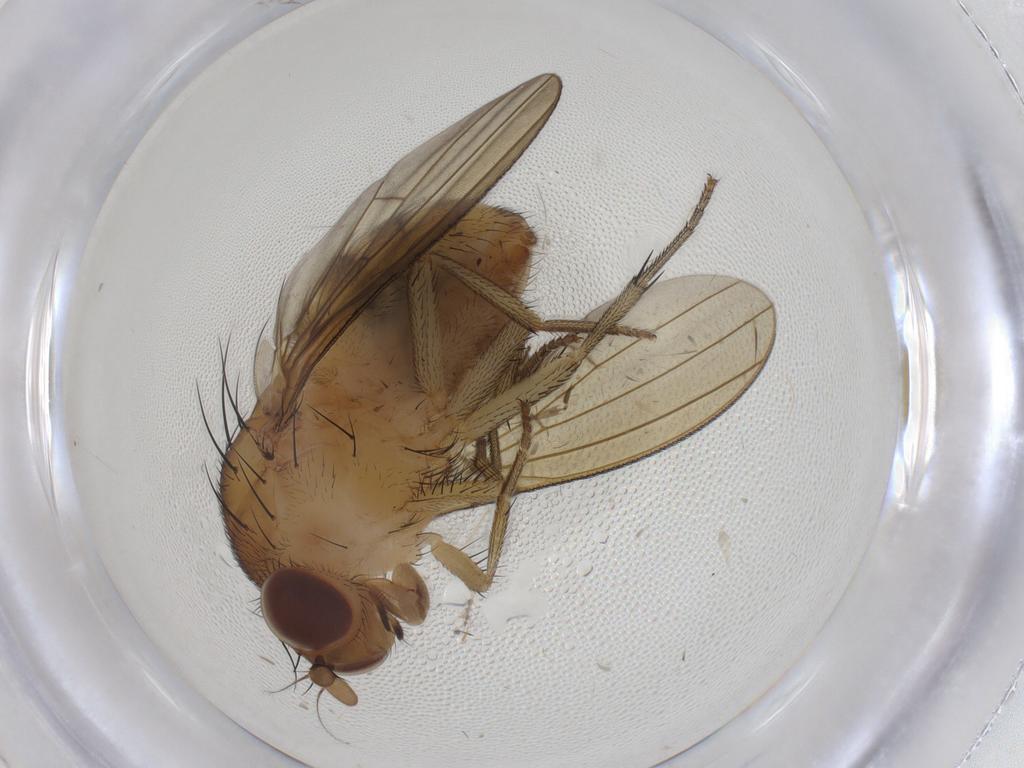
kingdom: Animalia
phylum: Arthropoda
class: Insecta
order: Diptera
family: Cecidomyiidae
